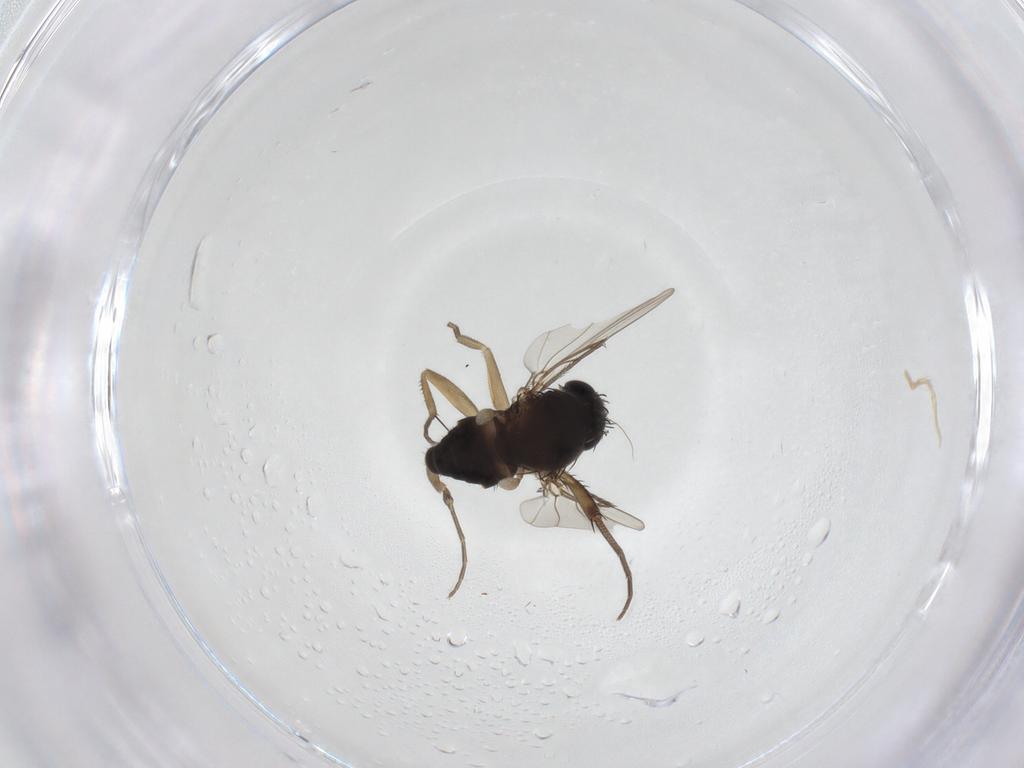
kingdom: Animalia
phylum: Arthropoda
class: Insecta
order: Diptera
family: Phoridae
